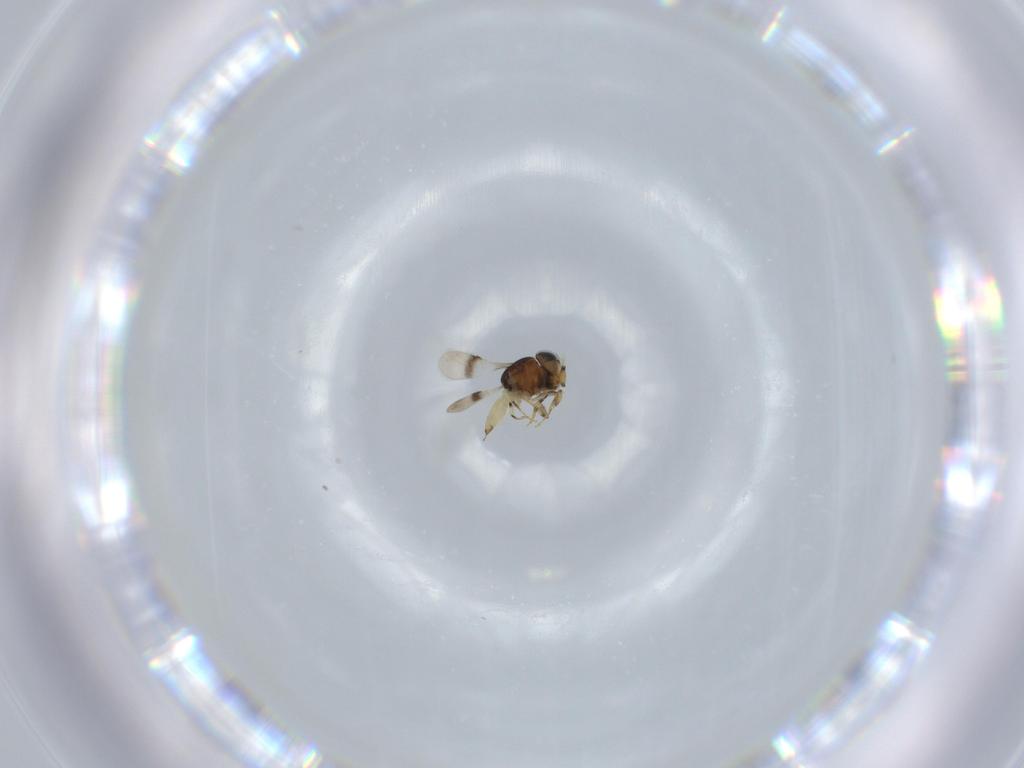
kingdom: Animalia
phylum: Arthropoda
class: Insecta
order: Hymenoptera
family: Scelionidae
